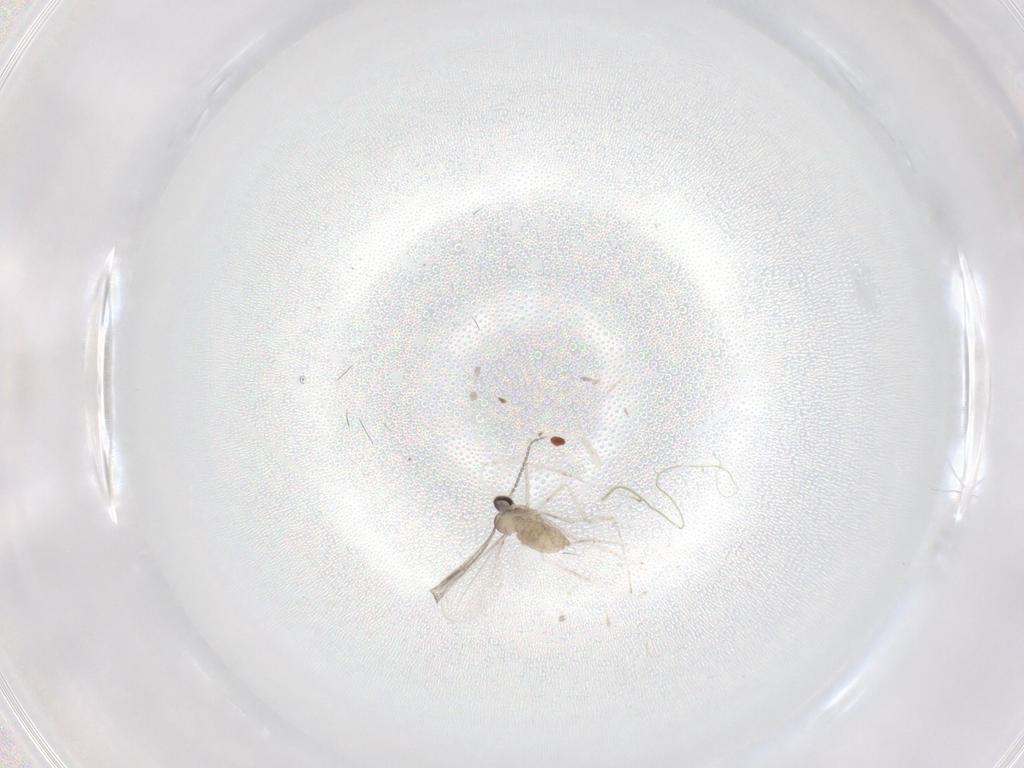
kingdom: Animalia
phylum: Arthropoda
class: Insecta
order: Diptera
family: Cecidomyiidae
